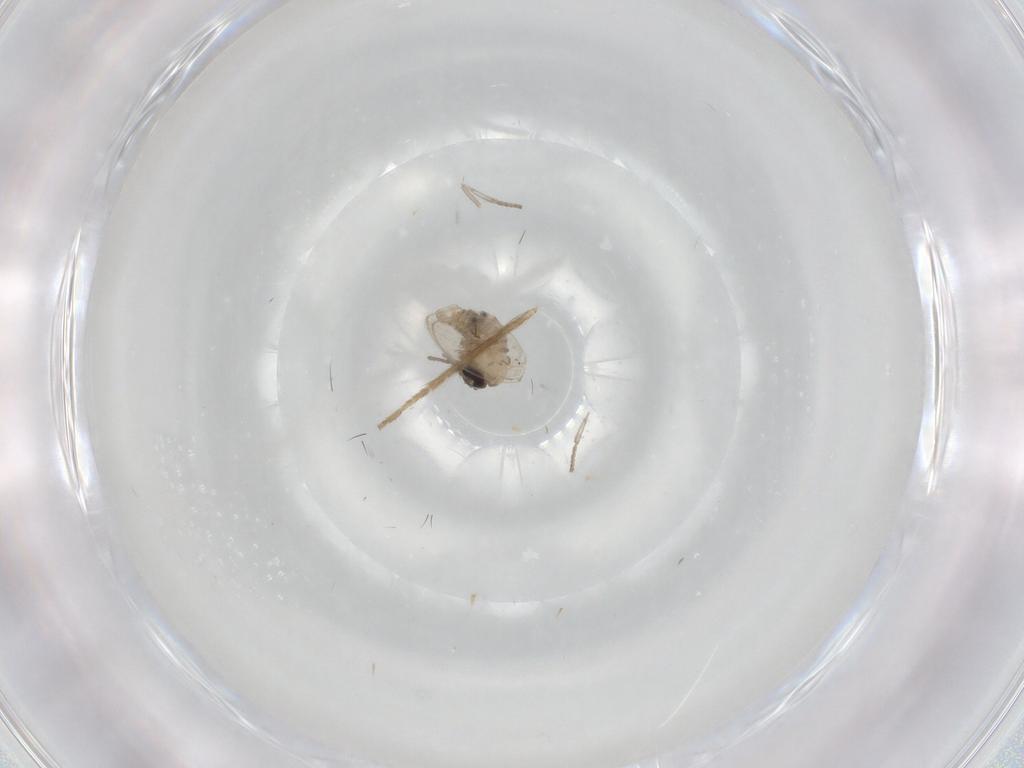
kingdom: Animalia
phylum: Arthropoda
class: Insecta
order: Diptera
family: Psychodidae
